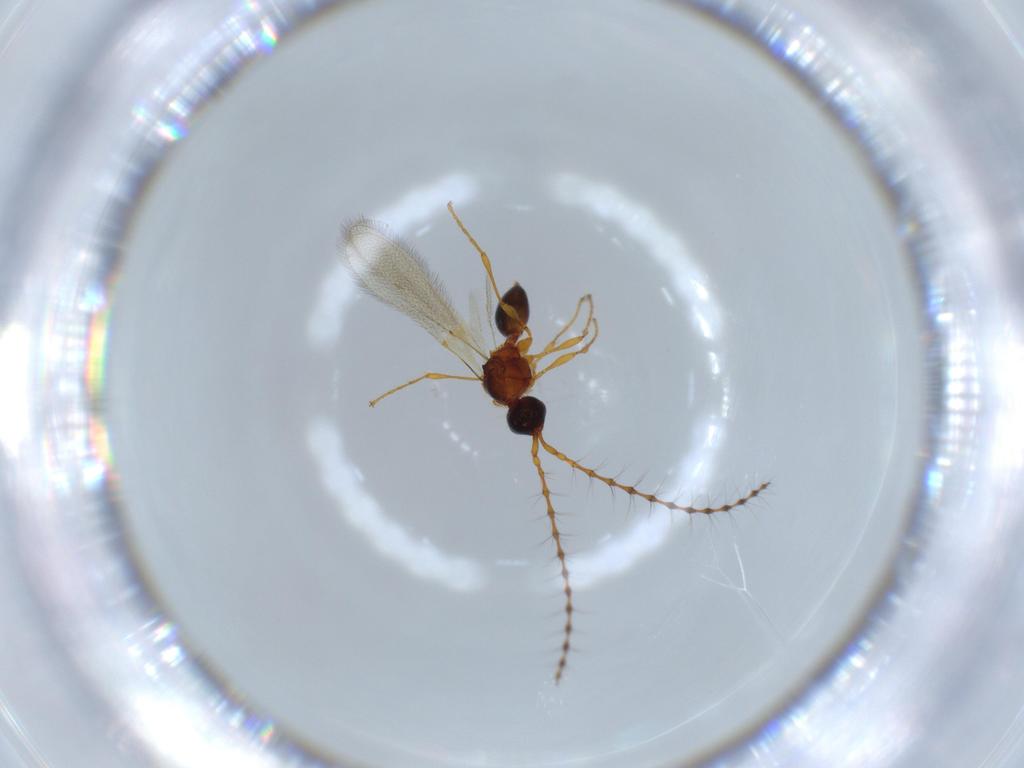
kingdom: Animalia
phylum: Arthropoda
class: Insecta
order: Hymenoptera
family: Diapriidae
